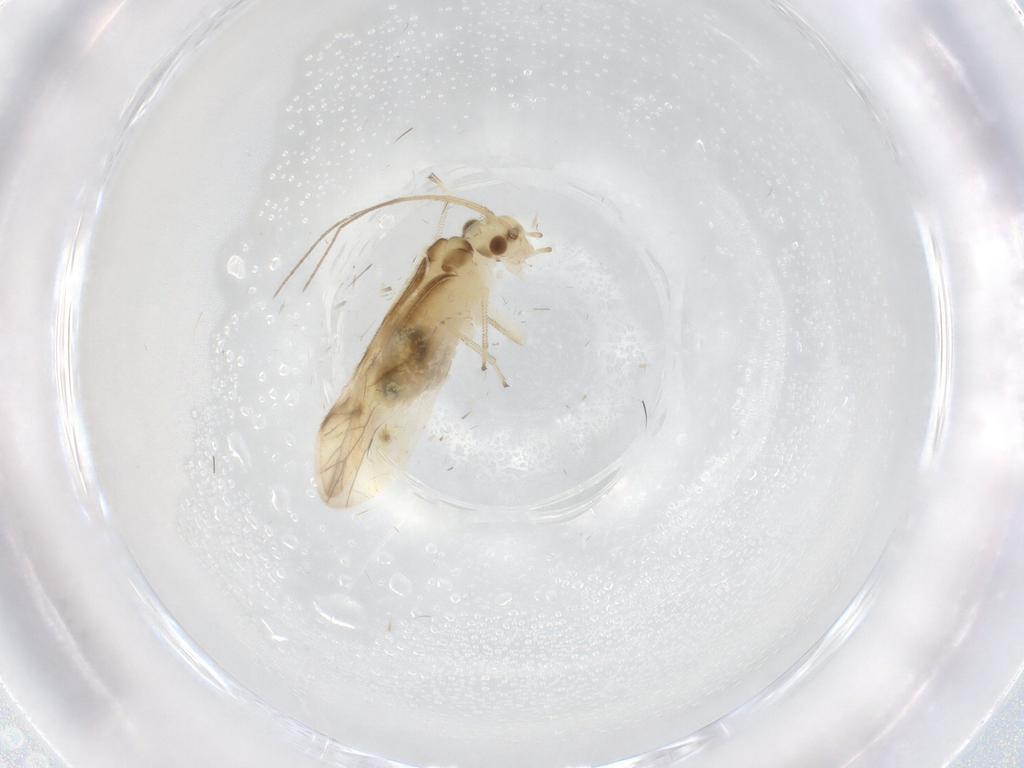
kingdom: Animalia
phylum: Arthropoda
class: Insecta
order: Psocodea
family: Caeciliusidae
